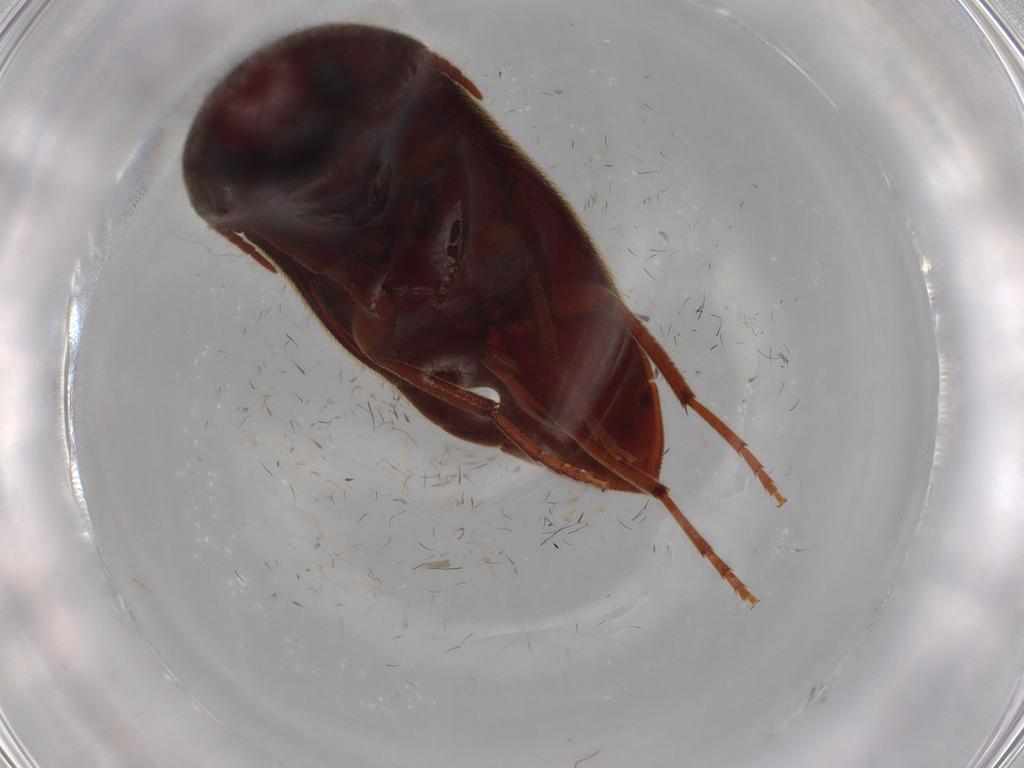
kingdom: Animalia
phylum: Arthropoda
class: Insecta
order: Coleoptera
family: Eucnemidae
